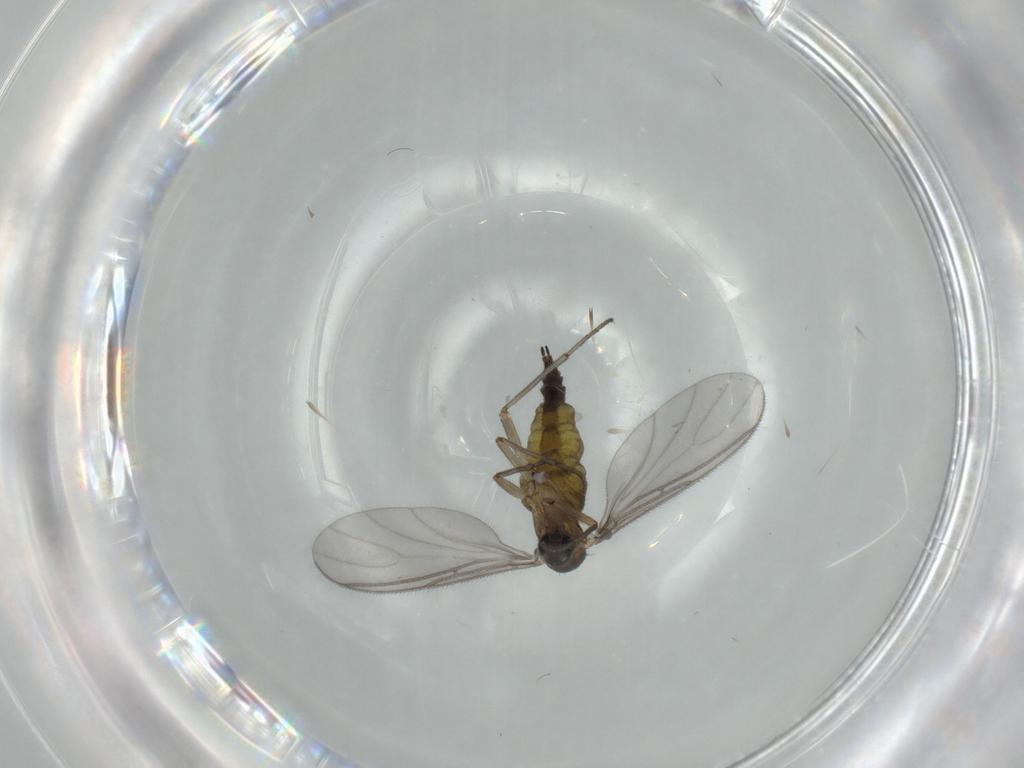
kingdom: Animalia
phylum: Arthropoda
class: Insecta
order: Diptera
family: Sciaridae
